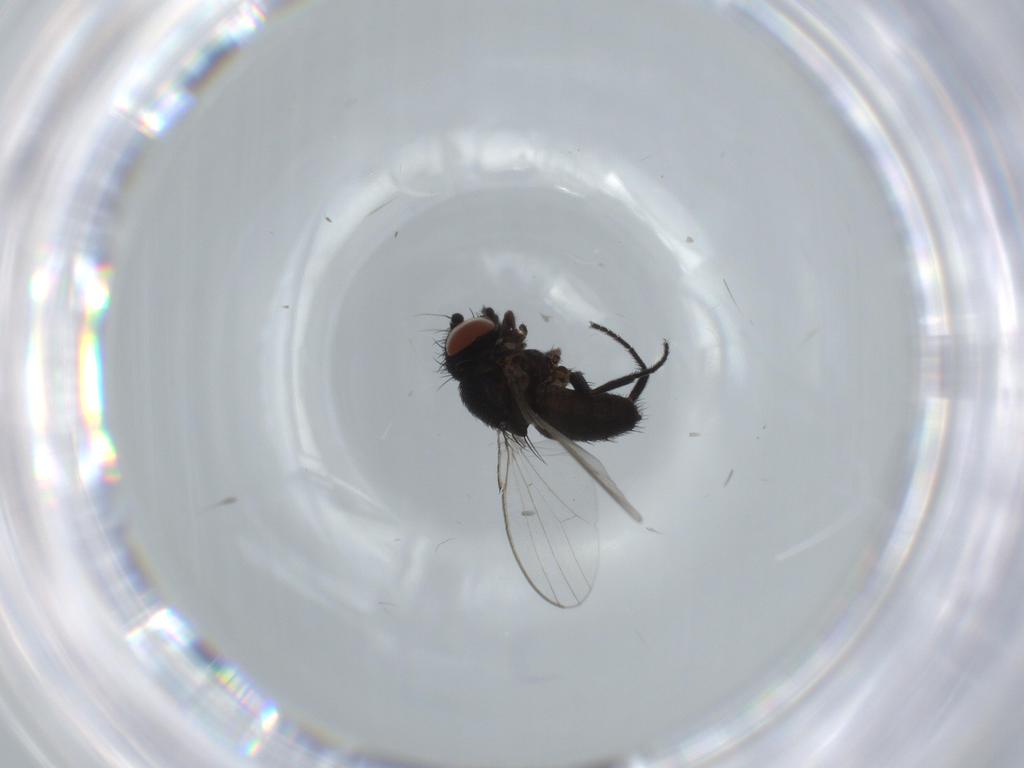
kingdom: Animalia
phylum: Arthropoda
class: Insecta
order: Diptera
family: Milichiidae
